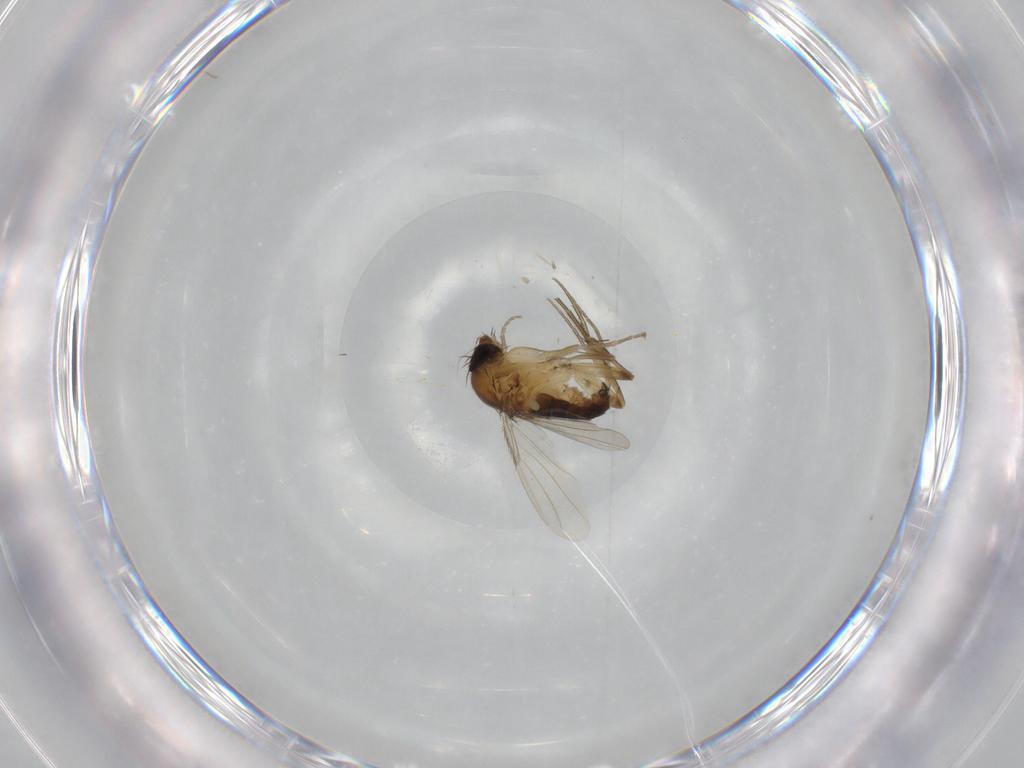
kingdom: Animalia
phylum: Arthropoda
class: Insecta
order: Diptera
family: Phoridae
